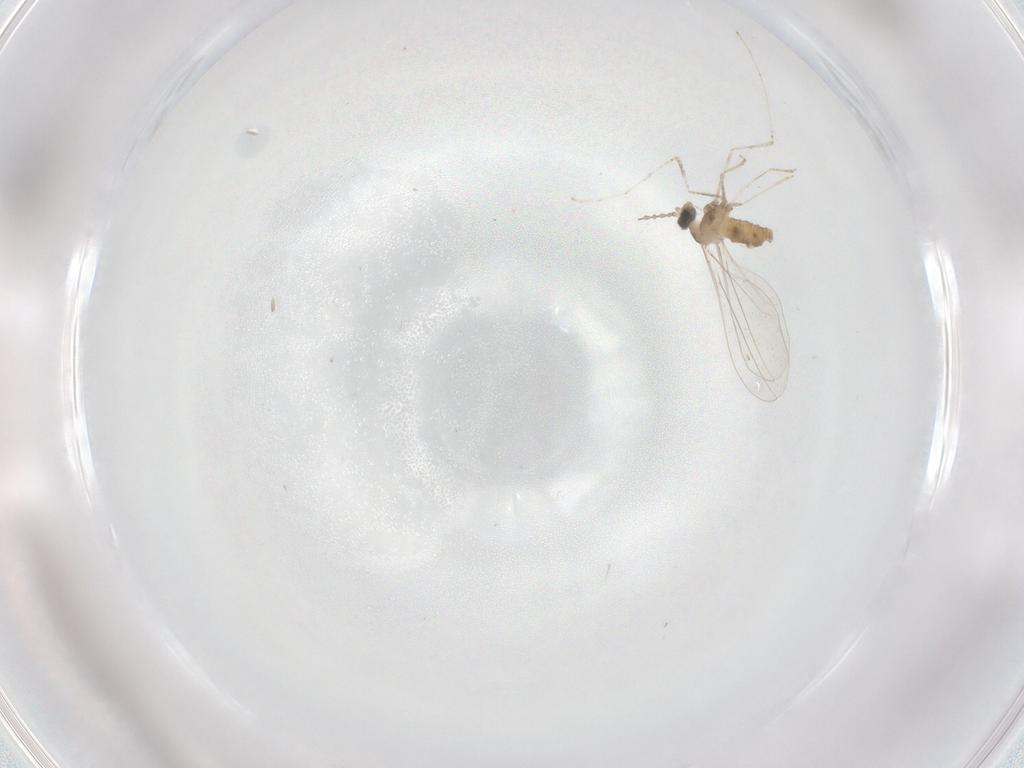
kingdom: Animalia
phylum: Arthropoda
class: Insecta
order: Diptera
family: Cecidomyiidae
